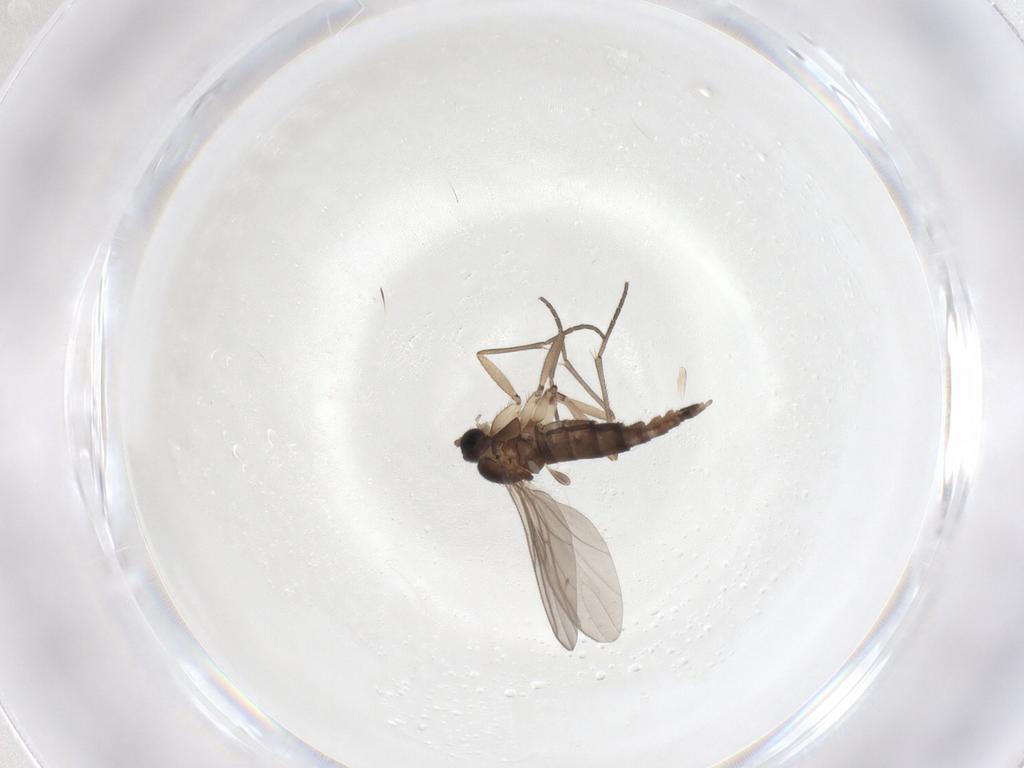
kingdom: Animalia
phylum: Arthropoda
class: Insecta
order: Diptera
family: Sciaridae
